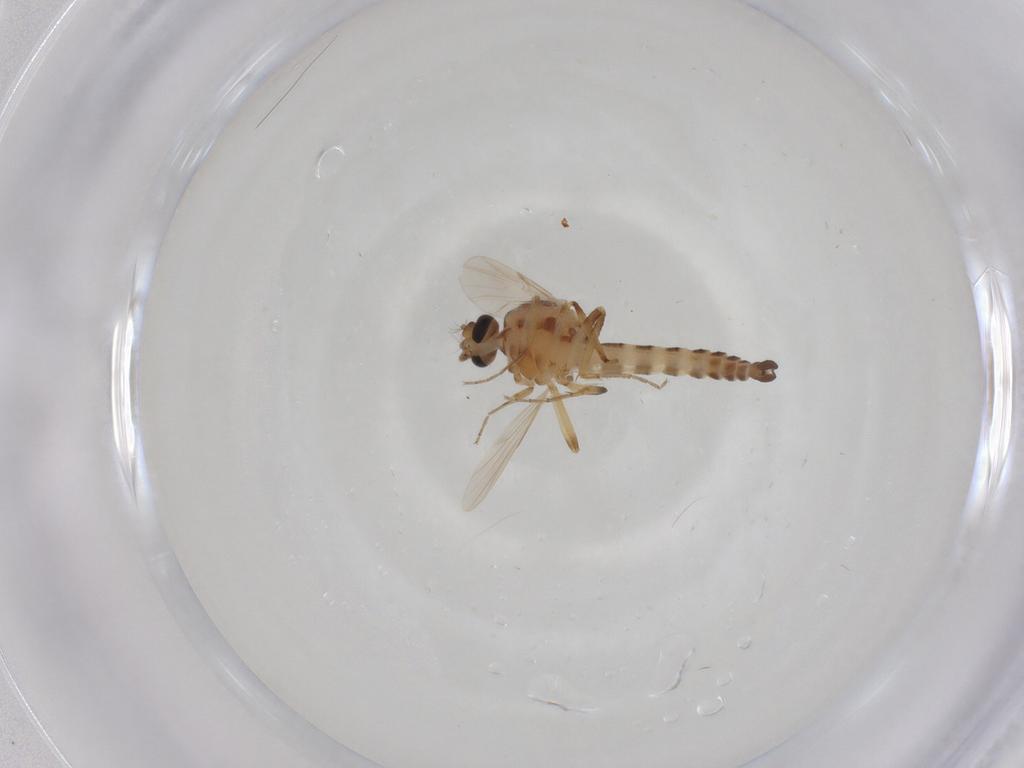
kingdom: Animalia
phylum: Arthropoda
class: Insecta
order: Diptera
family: Ceratopogonidae
